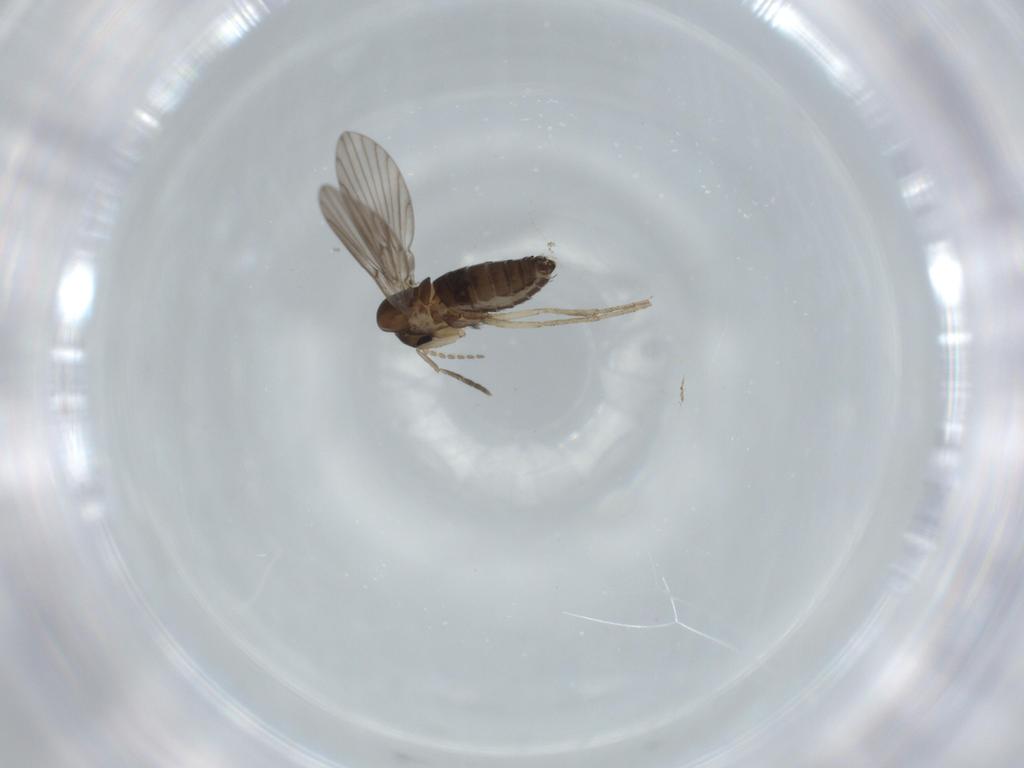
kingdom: Animalia
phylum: Arthropoda
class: Insecta
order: Diptera
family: Psychodidae
